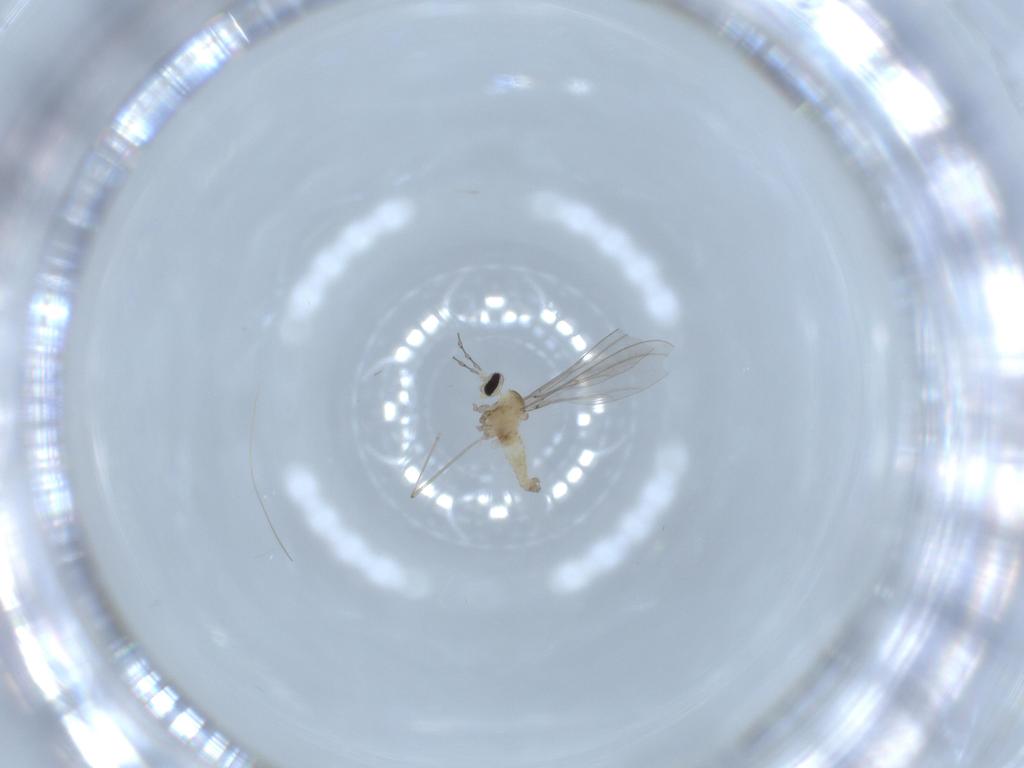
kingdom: Animalia
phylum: Arthropoda
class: Insecta
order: Diptera
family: Cecidomyiidae
